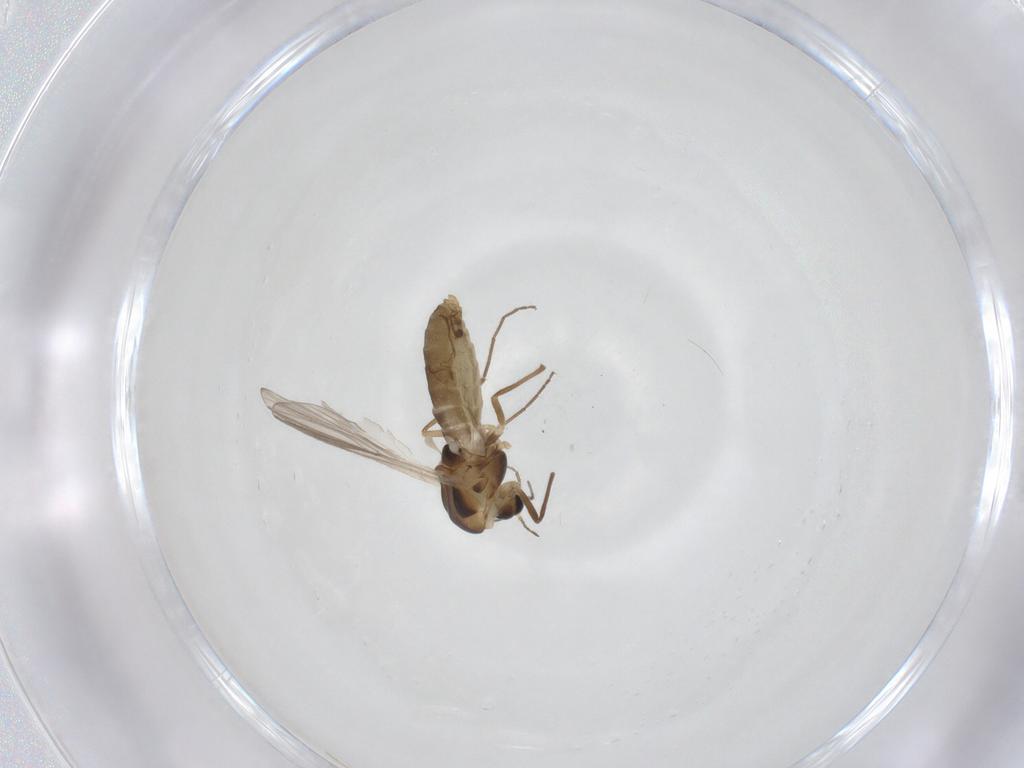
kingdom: Animalia
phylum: Arthropoda
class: Insecta
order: Diptera
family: Chironomidae
